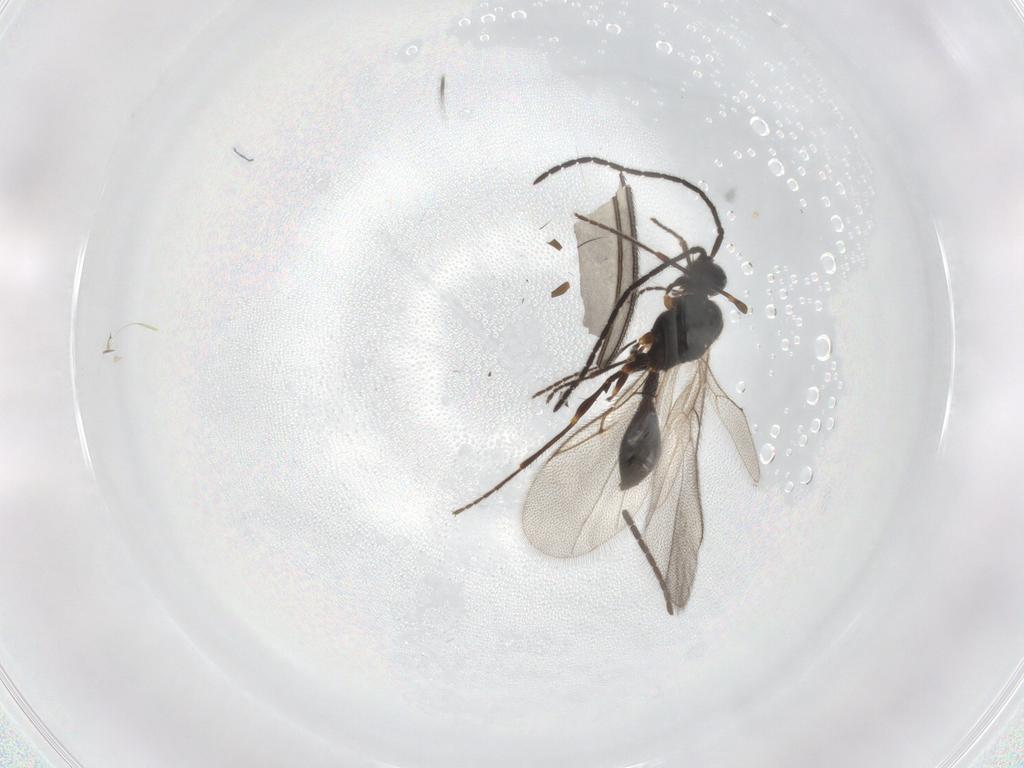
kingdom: Animalia
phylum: Arthropoda
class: Insecta
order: Hymenoptera
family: Diapriidae
